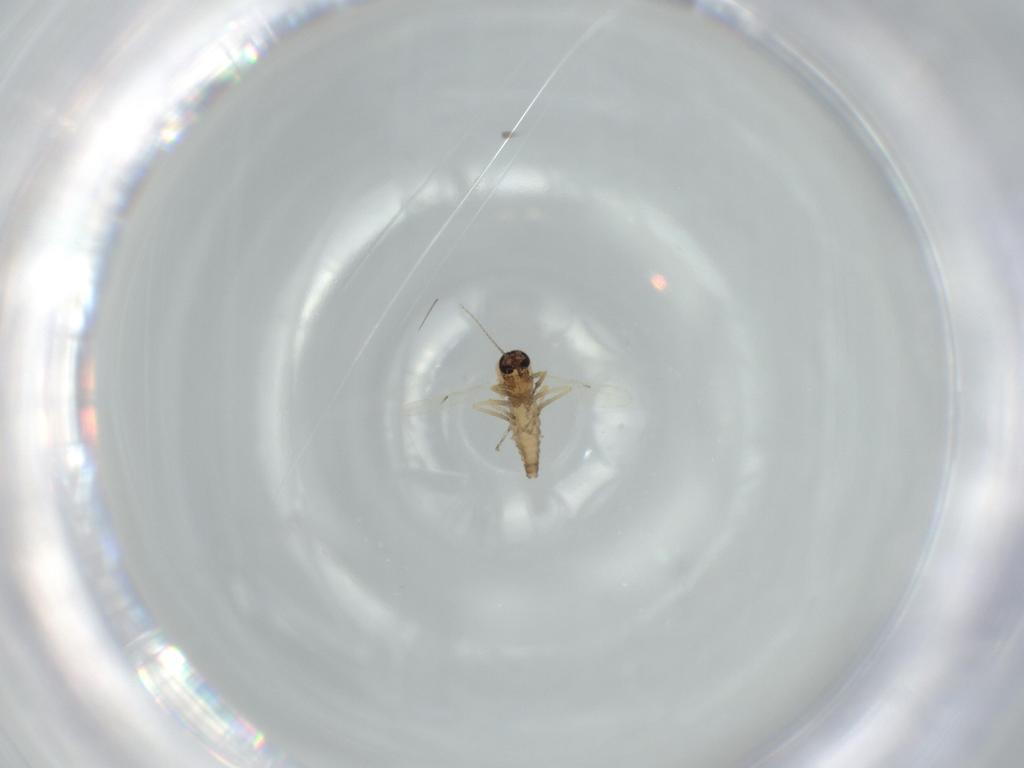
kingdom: Animalia
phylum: Arthropoda
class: Insecta
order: Diptera
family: Ceratopogonidae
